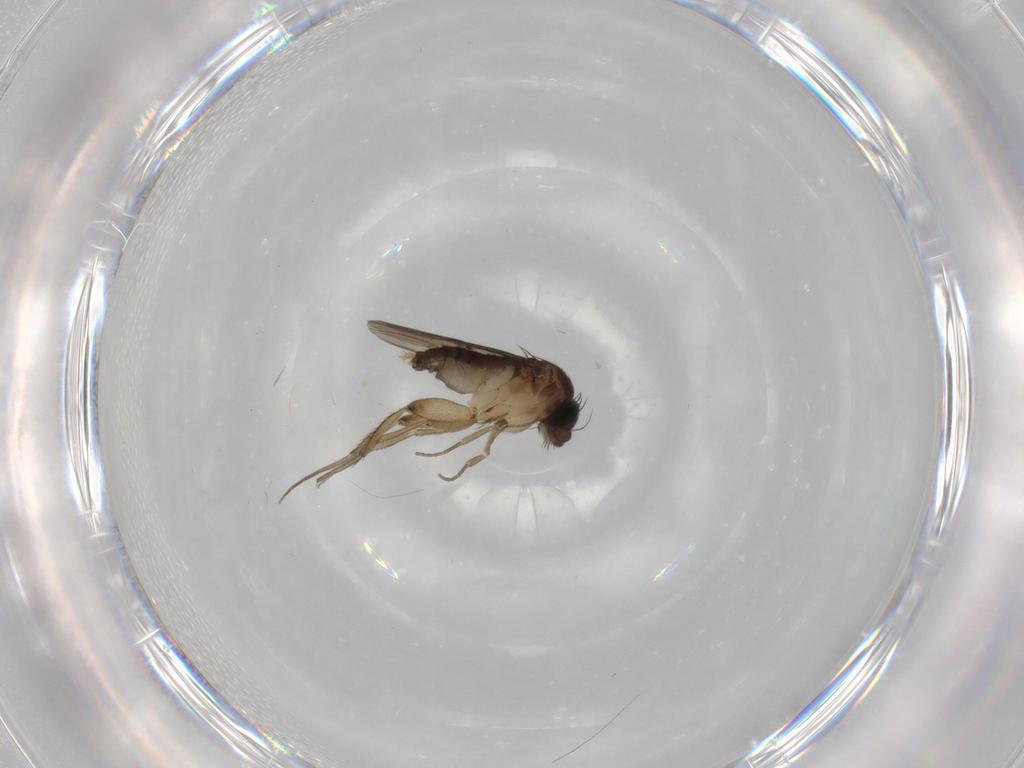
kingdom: Animalia
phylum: Arthropoda
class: Insecta
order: Diptera
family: Phoridae
